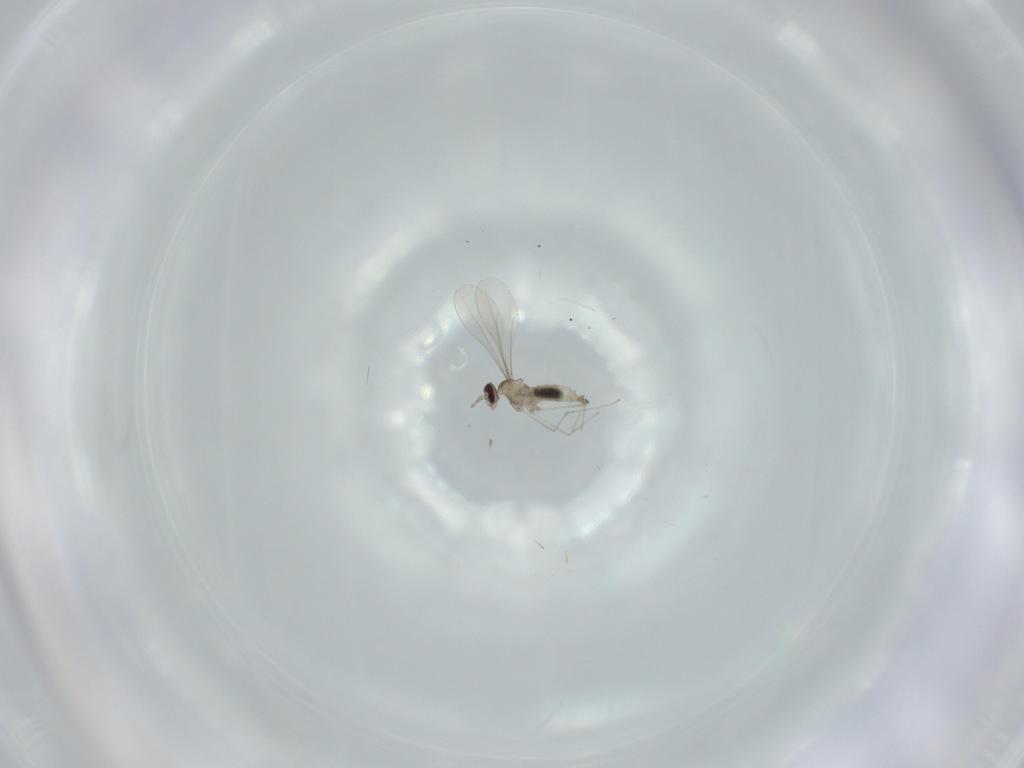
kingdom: Animalia
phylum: Arthropoda
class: Insecta
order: Diptera
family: Cecidomyiidae
